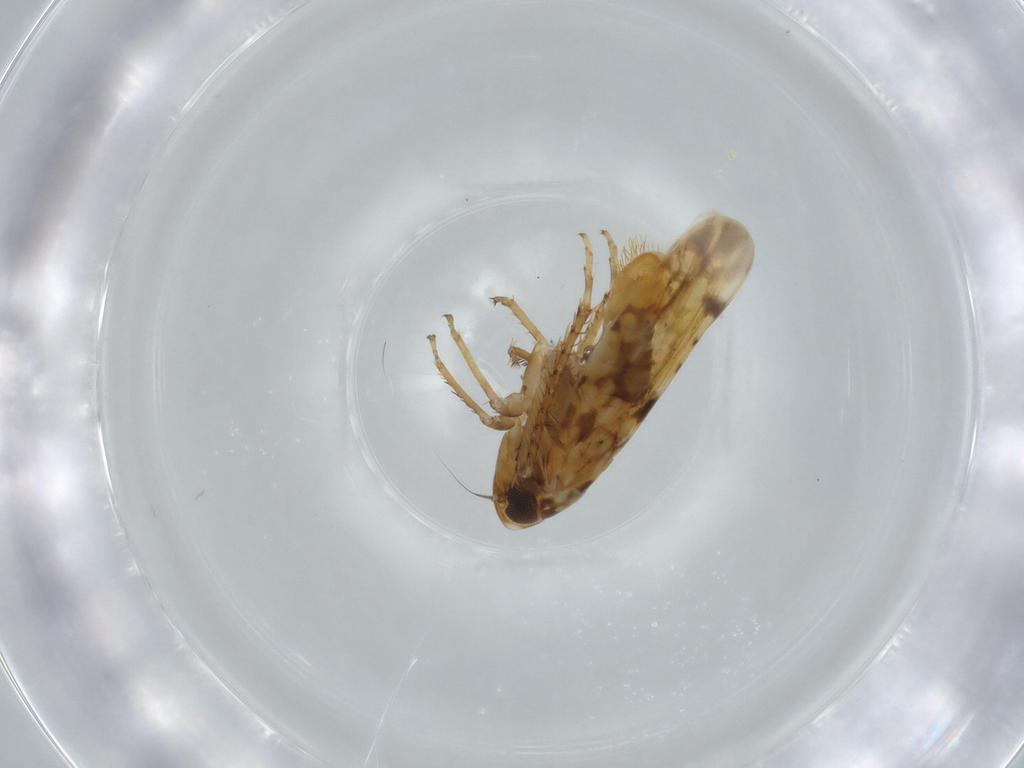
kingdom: Animalia
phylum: Arthropoda
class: Insecta
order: Hemiptera
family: Cicadellidae
